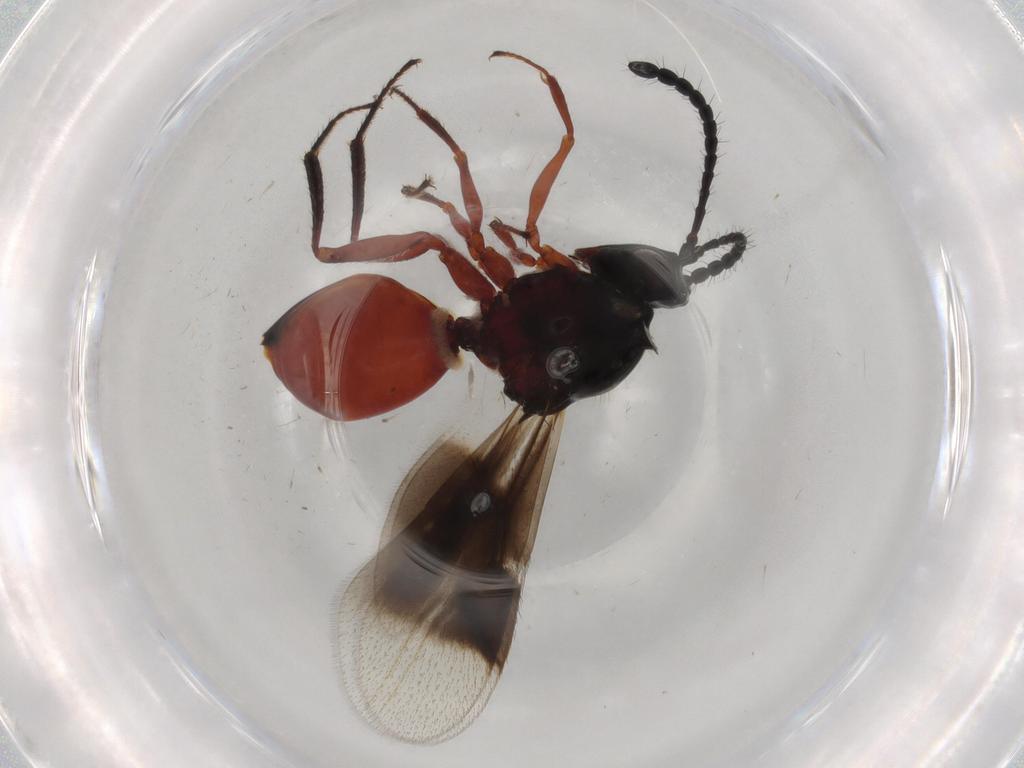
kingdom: Animalia
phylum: Arthropoda
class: Insecta
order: Hymenoptera
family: Figitidae
